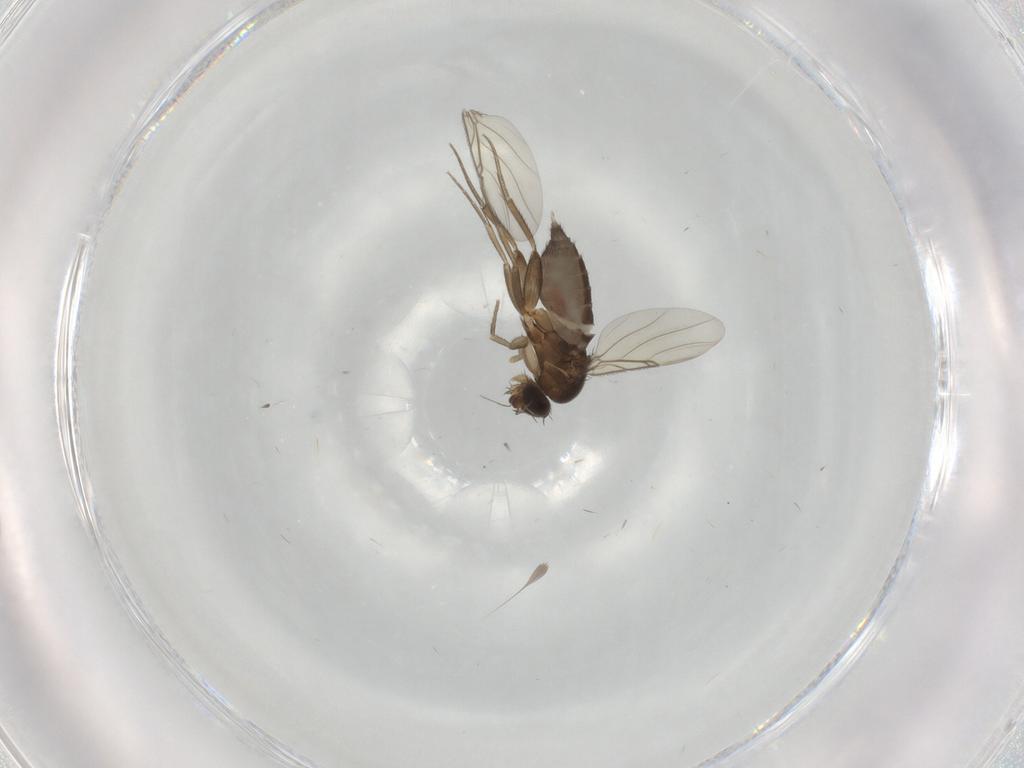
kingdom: Animalia
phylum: Arthropoda
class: Insecta
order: Diptera
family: Phoridae
